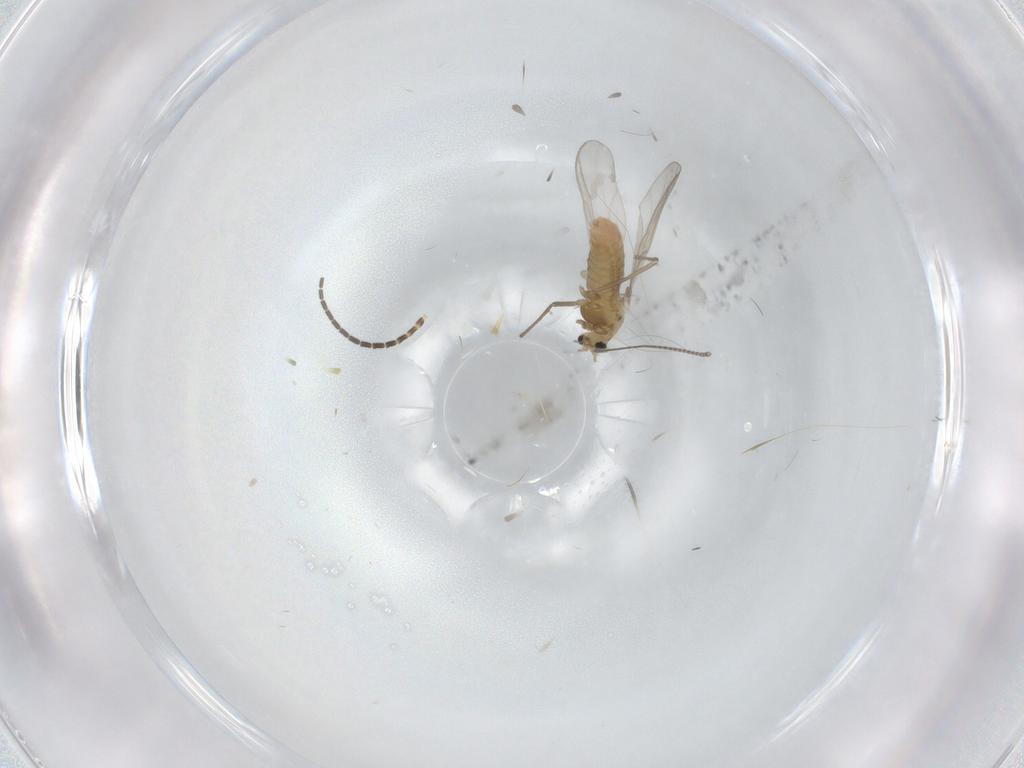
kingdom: Animalia
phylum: Arthropoda
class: Insecta
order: Diptera
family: Chironomidae
